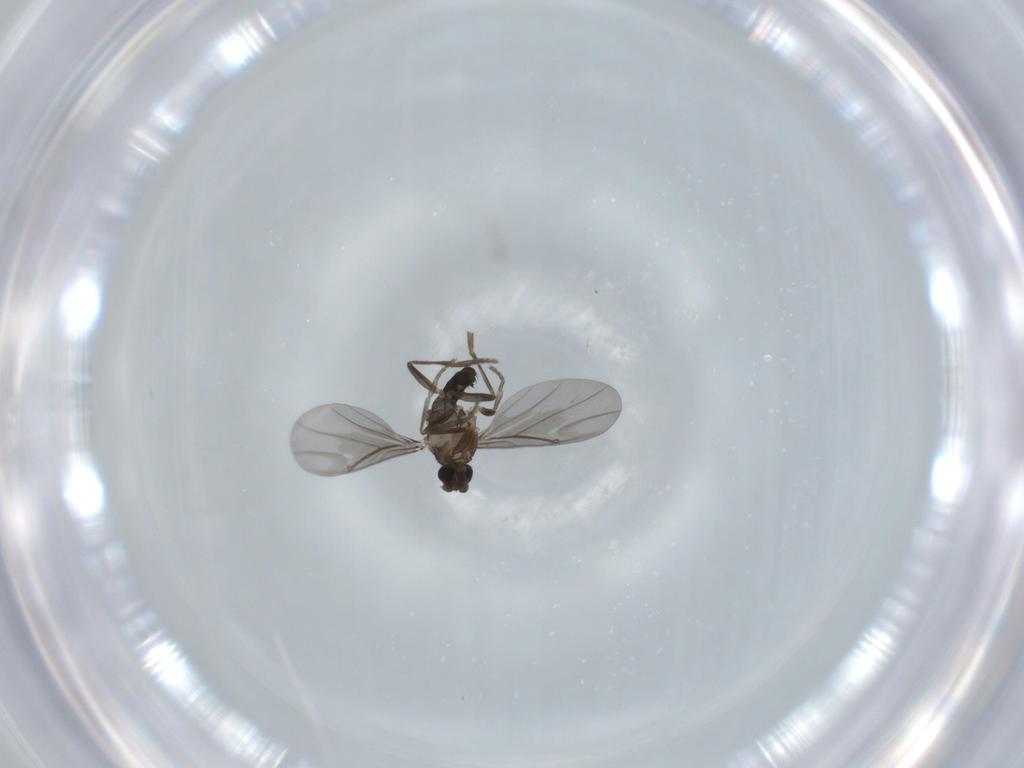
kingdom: Animalia
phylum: Arthropoda
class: Insecta
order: Diptera
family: Phoridae
